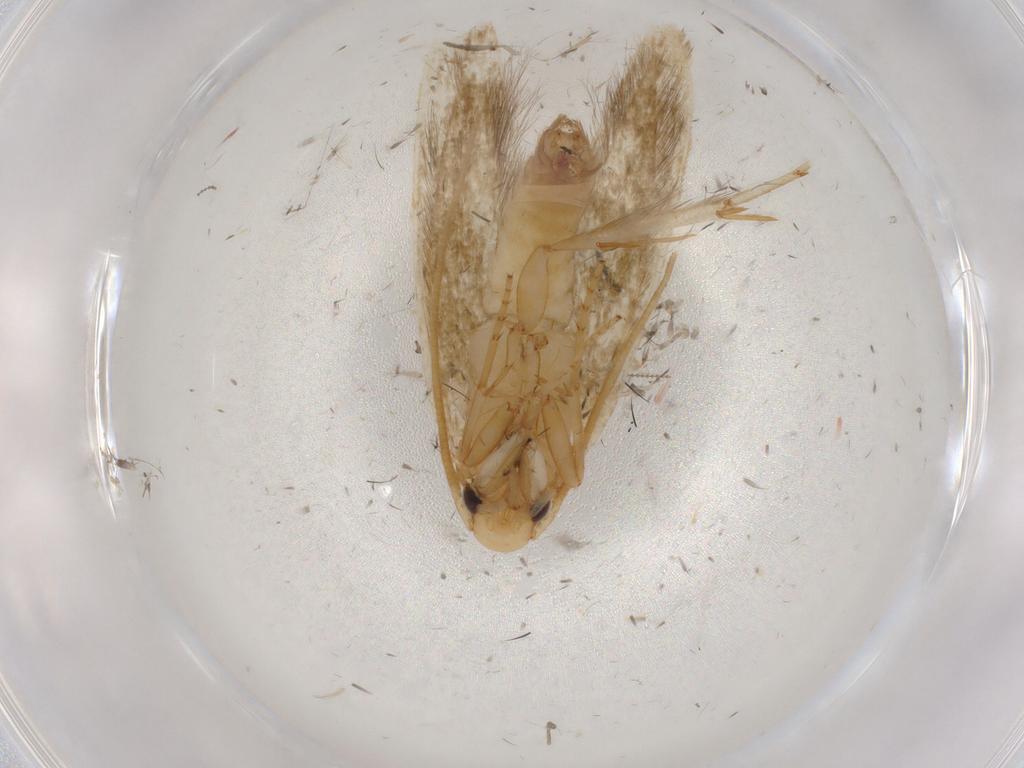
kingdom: Animalia
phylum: Arthropoda
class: Insecta
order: Lepidoptera
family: Tineidae
